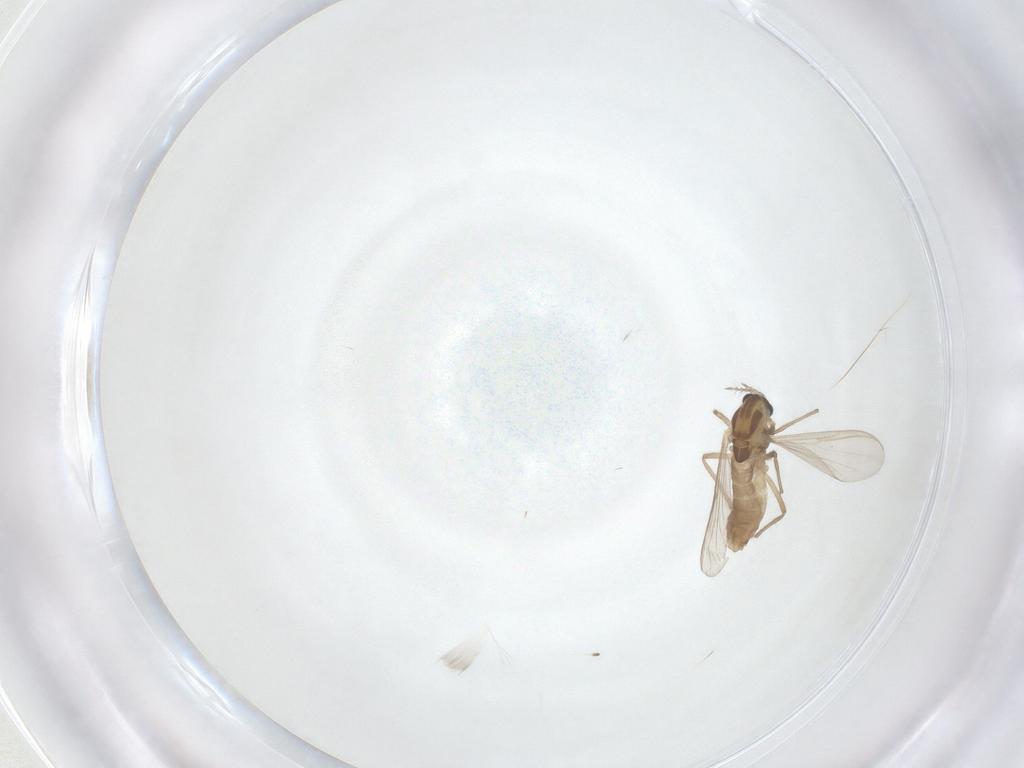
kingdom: Animalia
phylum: Arthropoda
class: Insecta
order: Diptera
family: Chironomidae
